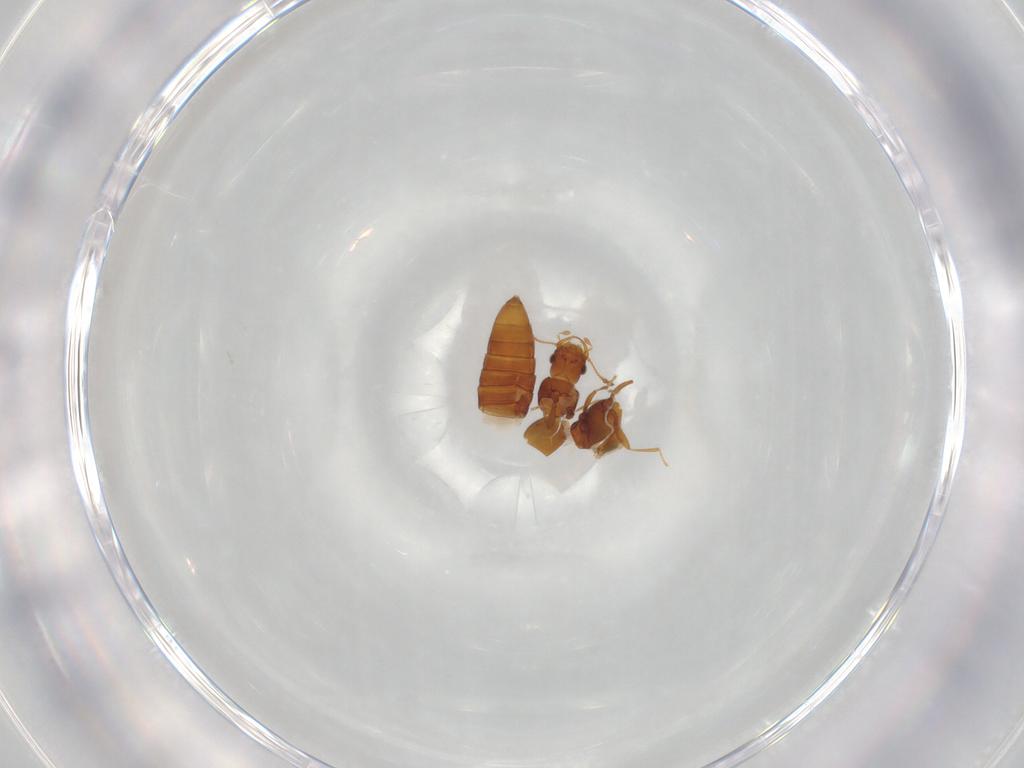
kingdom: Animalia
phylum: Arthropoda
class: Insecta
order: Coleoptera
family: Staphylinidae
